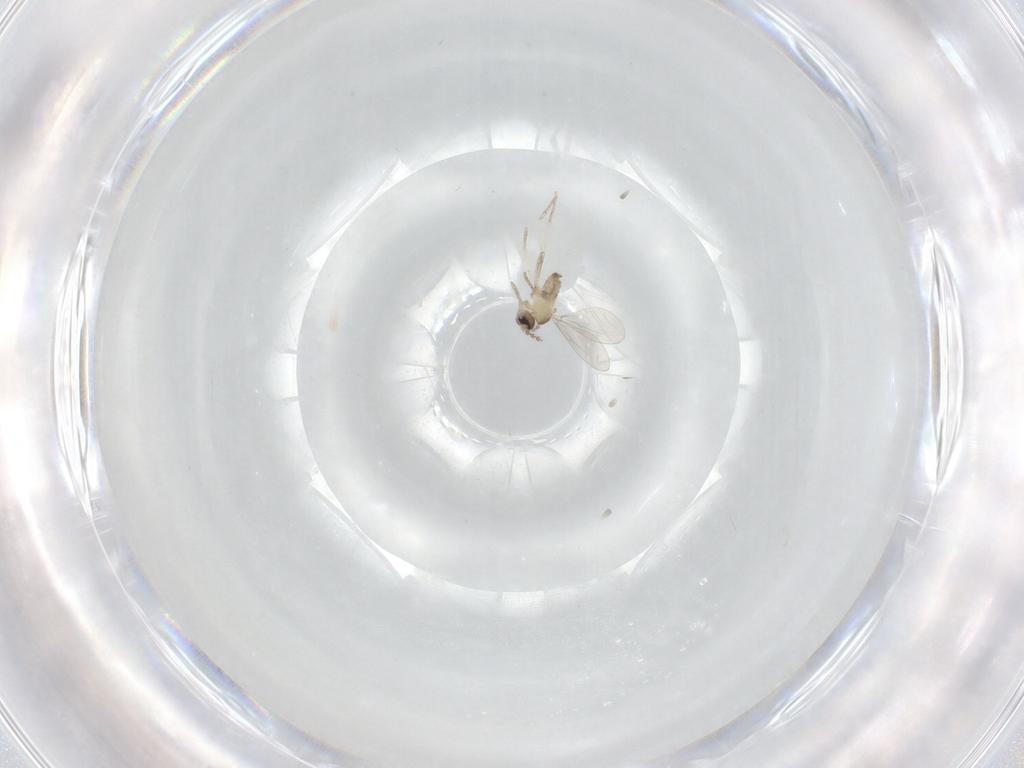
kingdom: Animalia
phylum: Arthropoda
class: Insecta
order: Diptera
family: Cecidomyiidae
